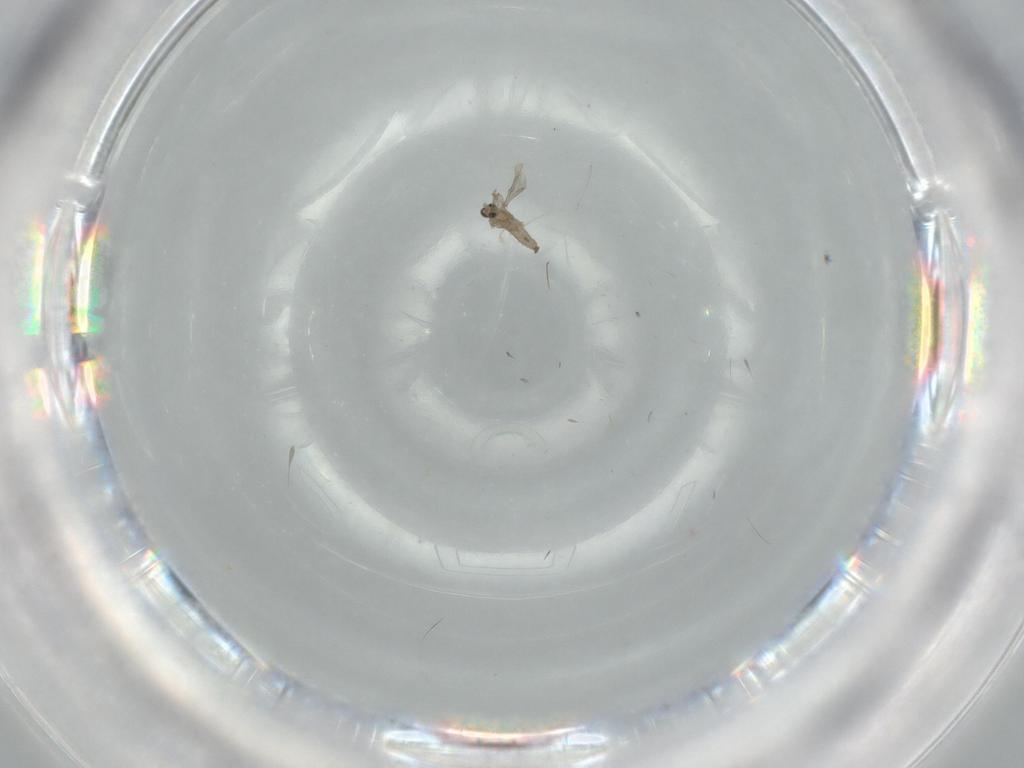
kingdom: Animalia
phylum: Arthropoda
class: Insecta
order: Diptera
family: Cecidomyiidae
